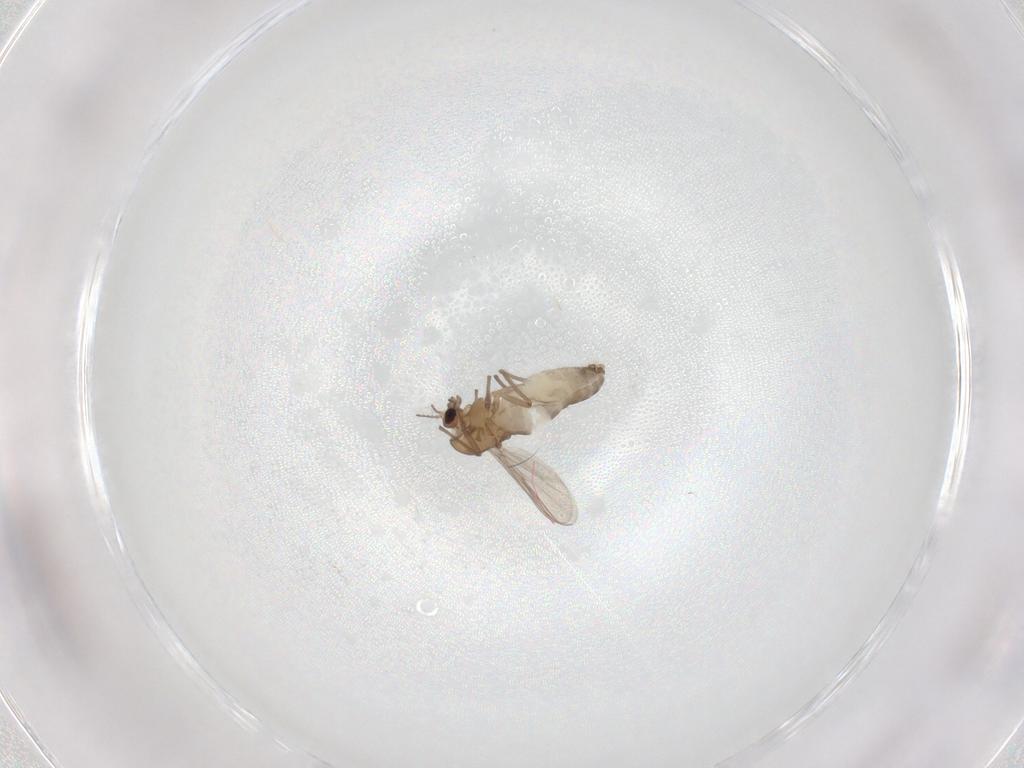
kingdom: Animalia
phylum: Arthropoda
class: Insecta
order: Diptera
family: Chironomidae
